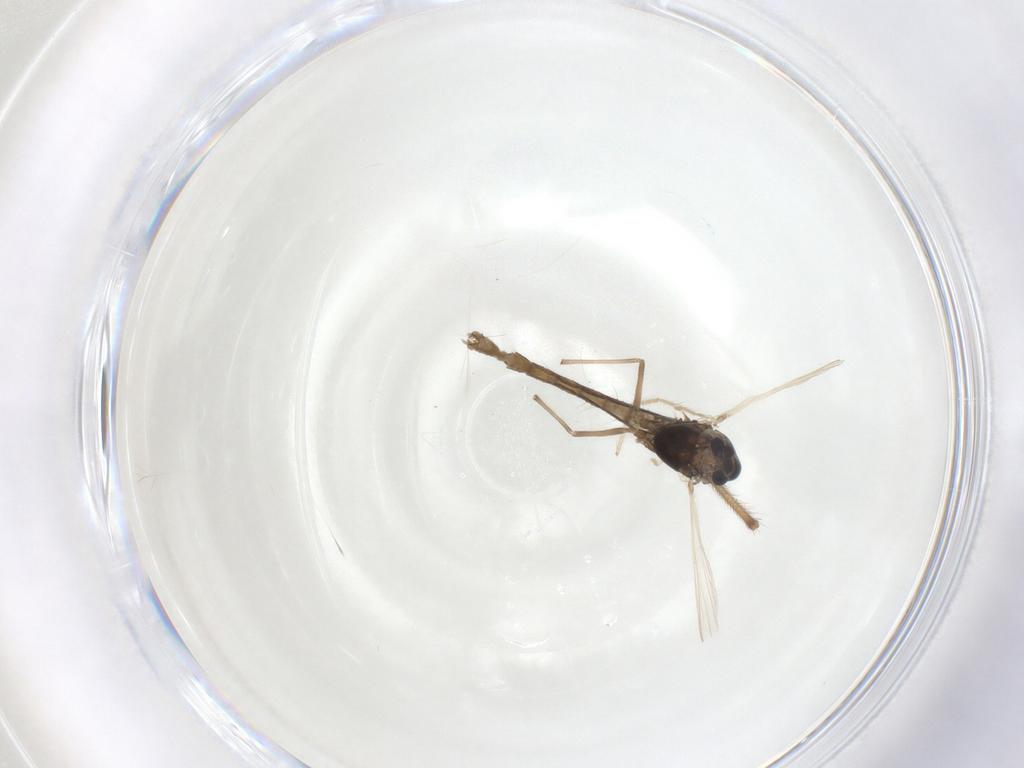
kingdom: Animalia
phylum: Arthropoda
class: Insecta
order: Diptera
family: Chironomidae
